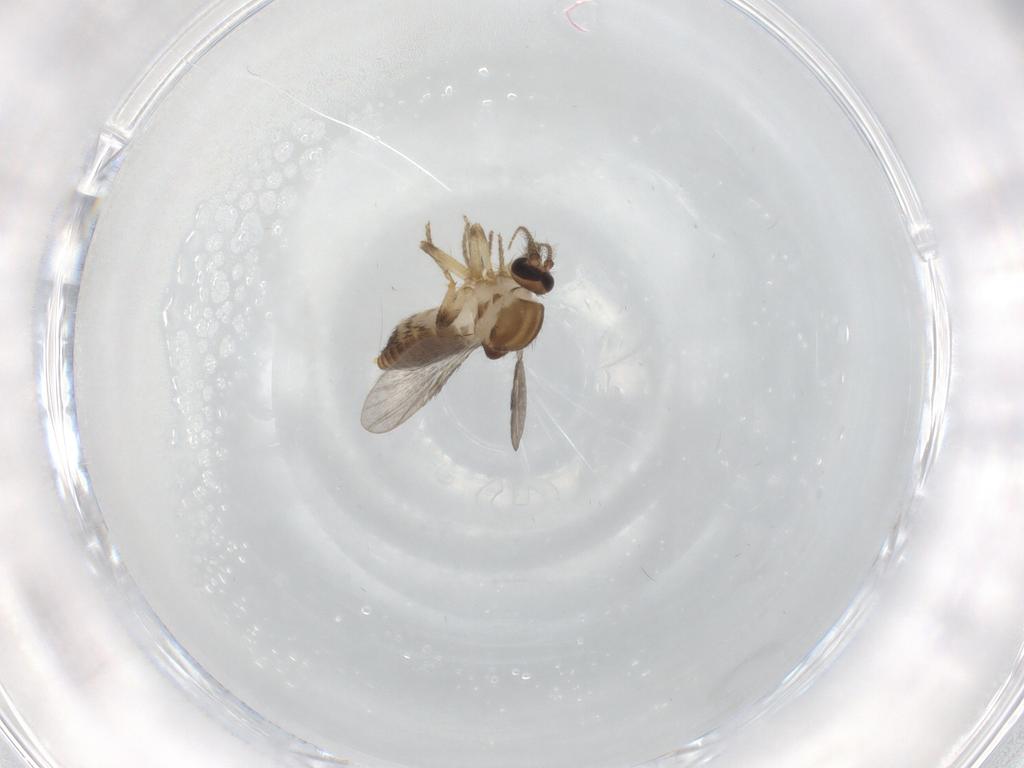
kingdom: Animalia
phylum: Arthropoda
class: Insecta
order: Diptera
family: Ceratopogonidae
